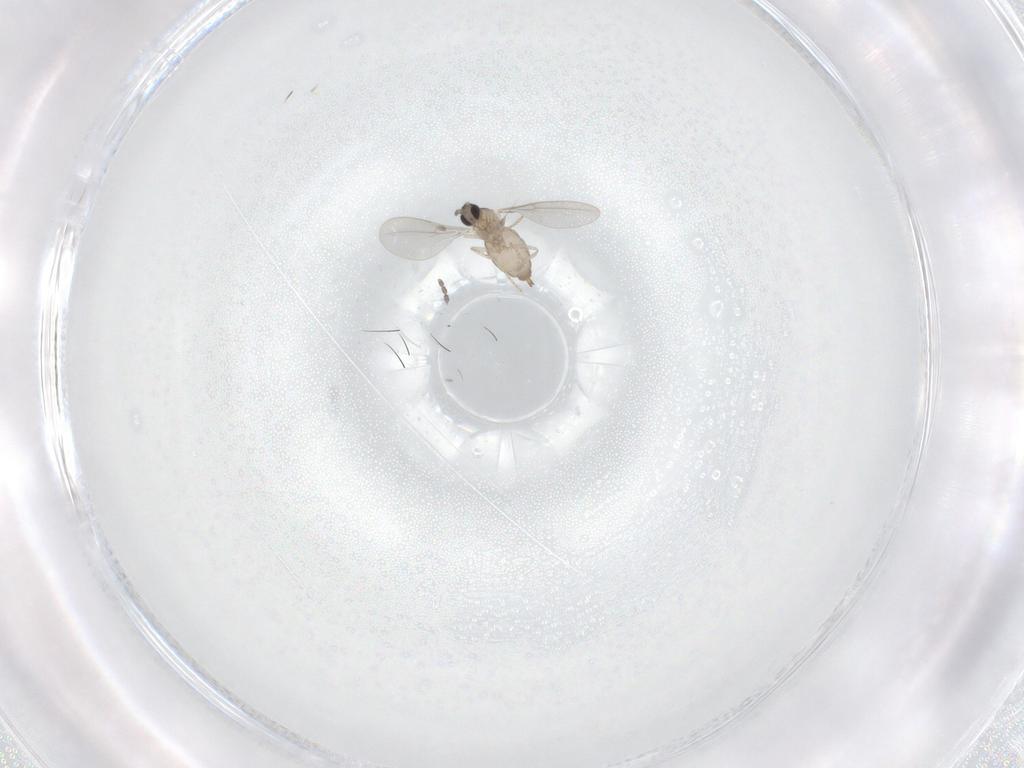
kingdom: Animalia
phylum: Arthropoda
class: Insecta
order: Diptera
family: Cecidomyiidae
